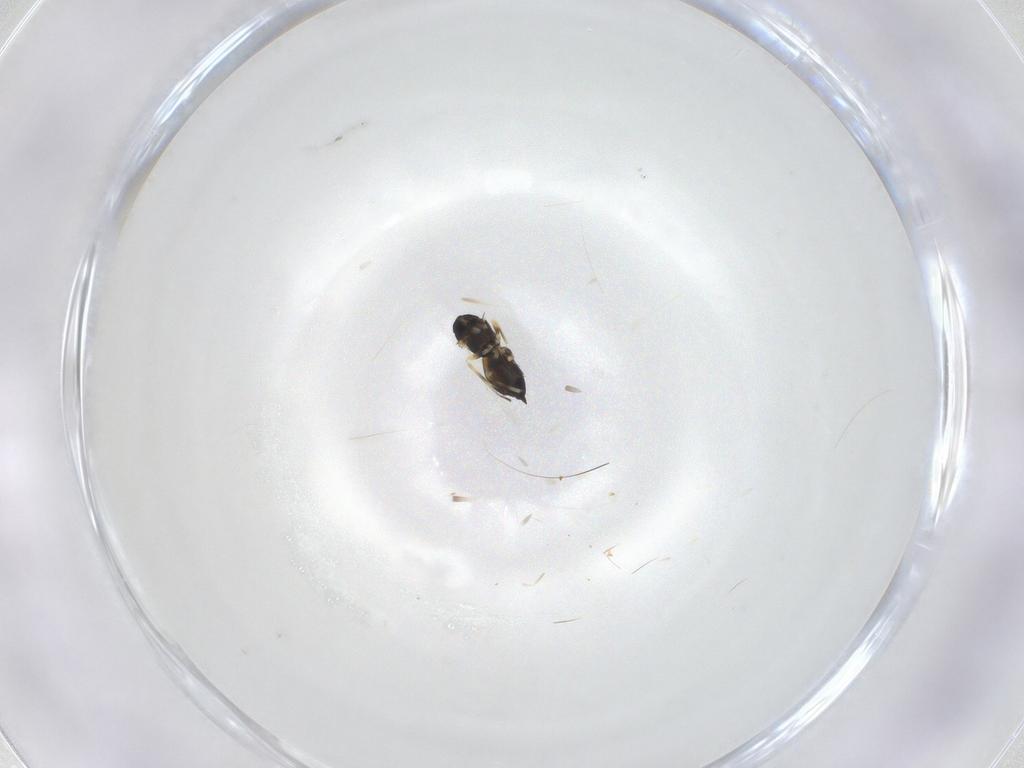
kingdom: Animalia
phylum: Arthropoda
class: Insecta
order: Hymenoptera
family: Eulophidae
